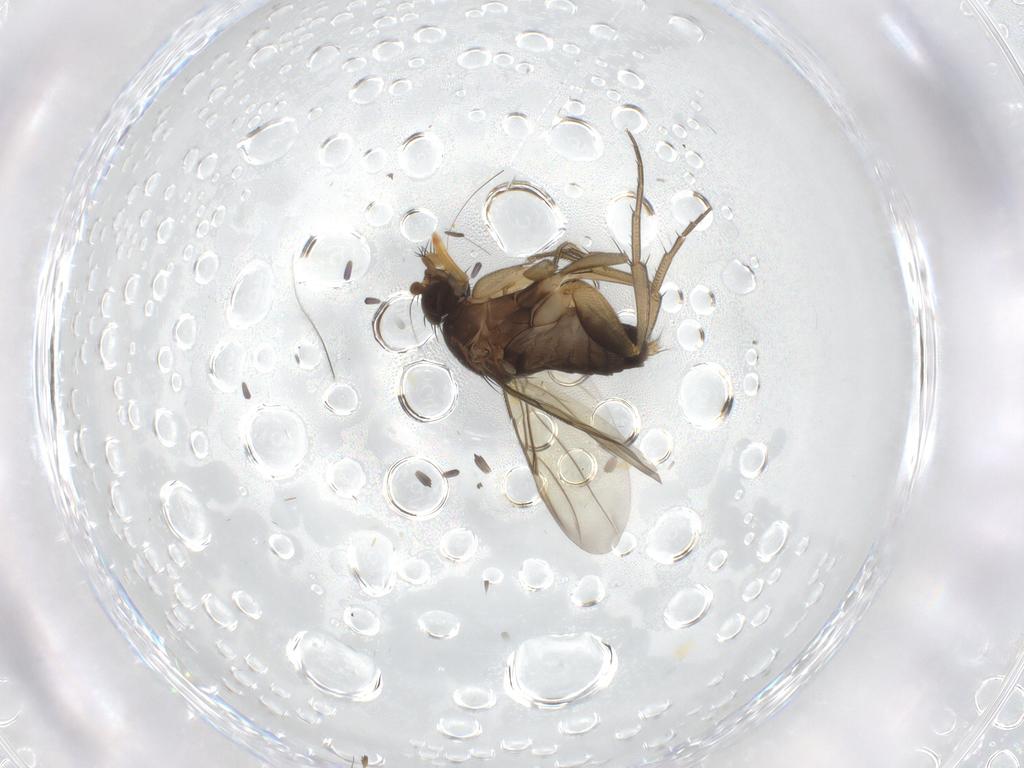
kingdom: Animalia
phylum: Arthropoda
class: Insecta
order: Diptera
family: Phoridae
